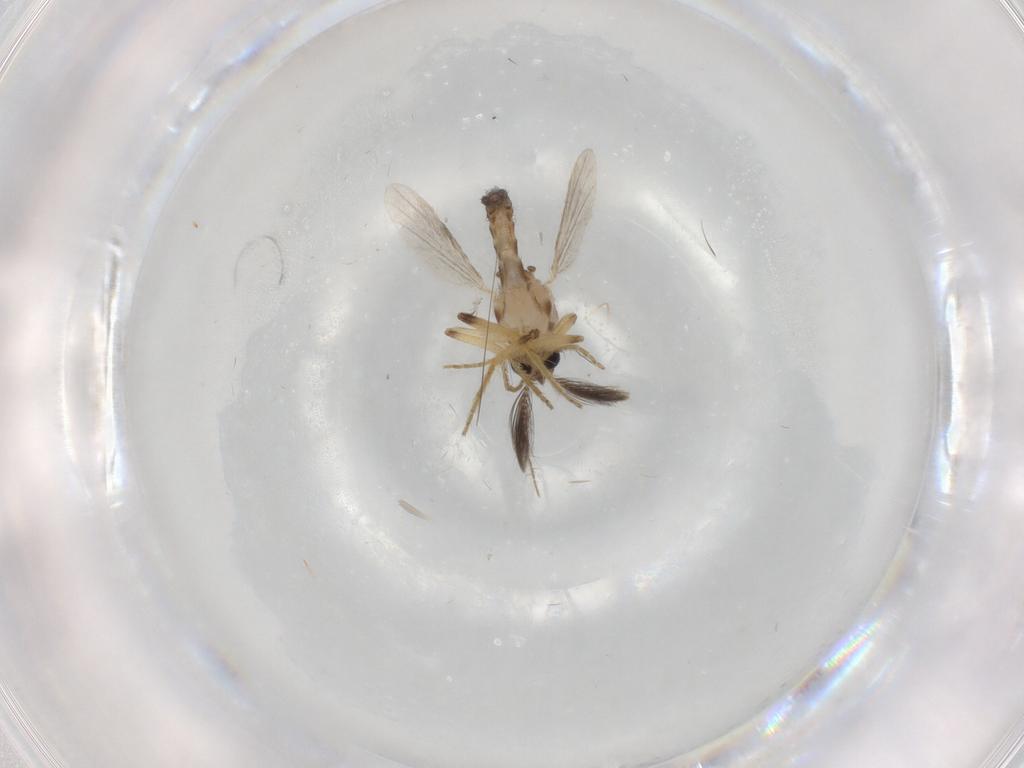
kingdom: Animalia
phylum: Arthropoda
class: Insecta
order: Diptera
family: Ceratopogonidae
